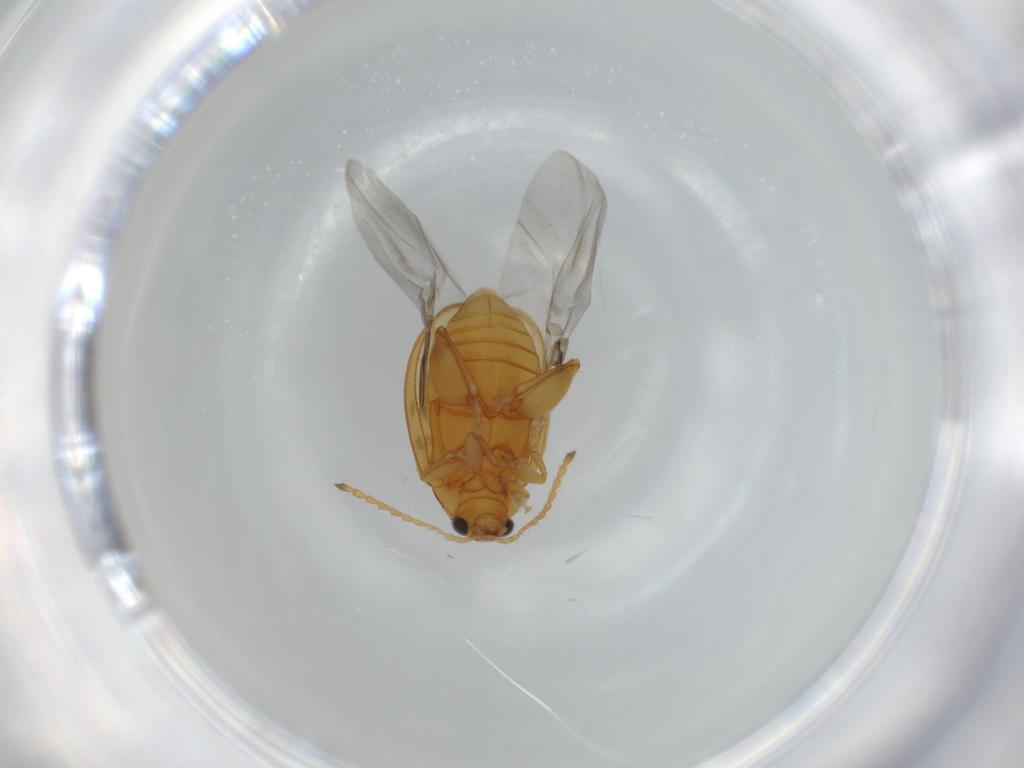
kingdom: Animalia
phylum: Arthropoda
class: Insecta
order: Coleoptera
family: Chrysomelidae
